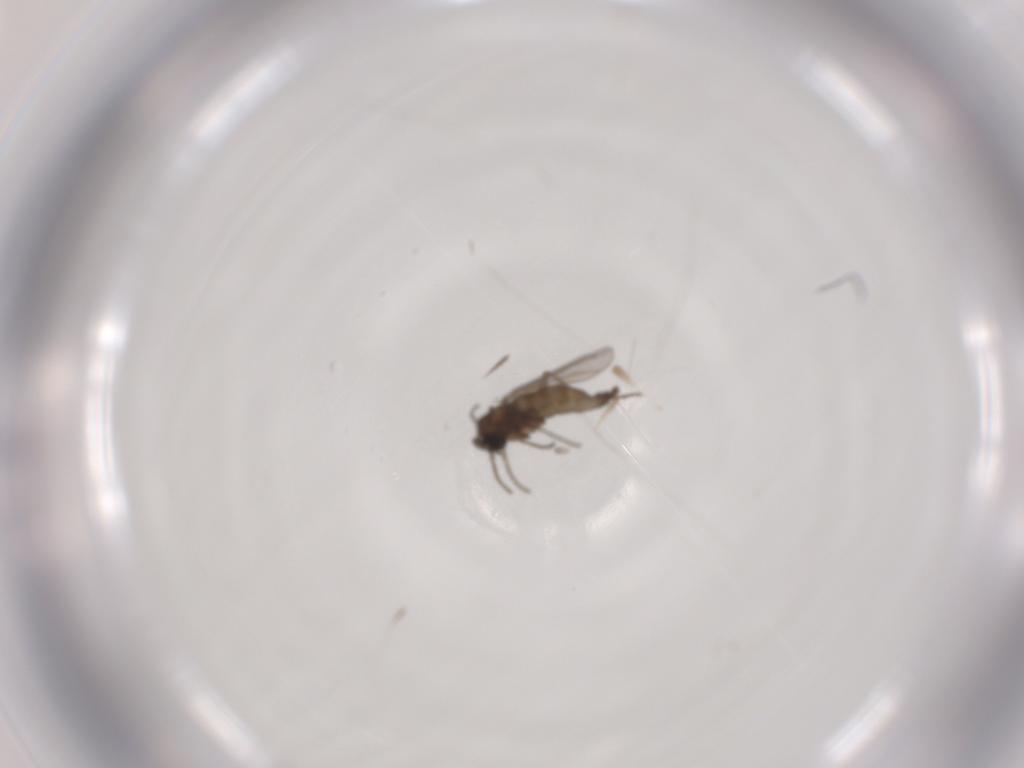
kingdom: Animalia
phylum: Arthropoda
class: Insecta
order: Diptera
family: Sciaridae
